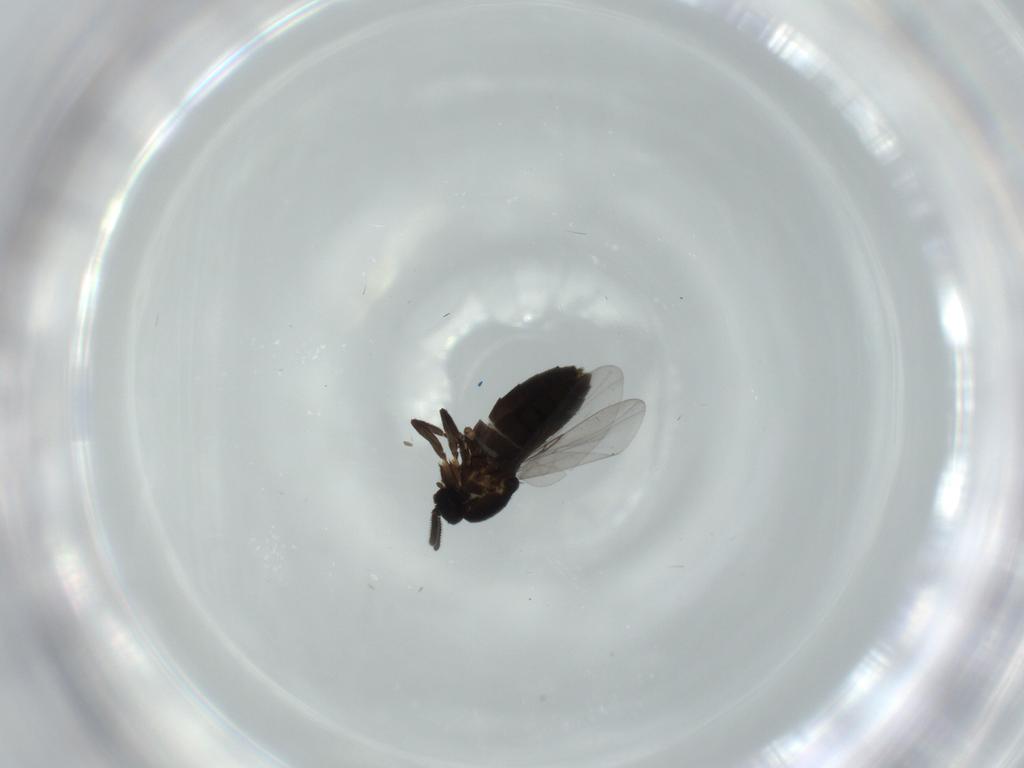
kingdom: Animalia
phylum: Arthropoda
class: Insecta
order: Diptera
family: Scatopsidae
